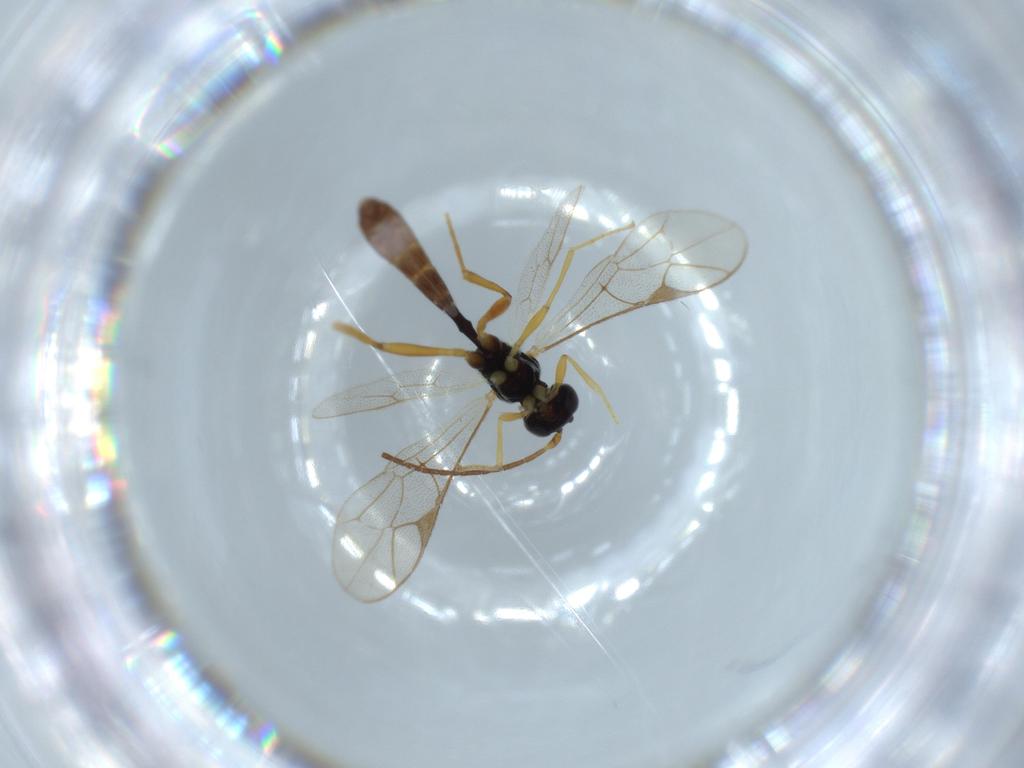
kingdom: Animalia
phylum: Arthropoda
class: Insecta
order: Hymenoptera
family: Ichneumonidae
